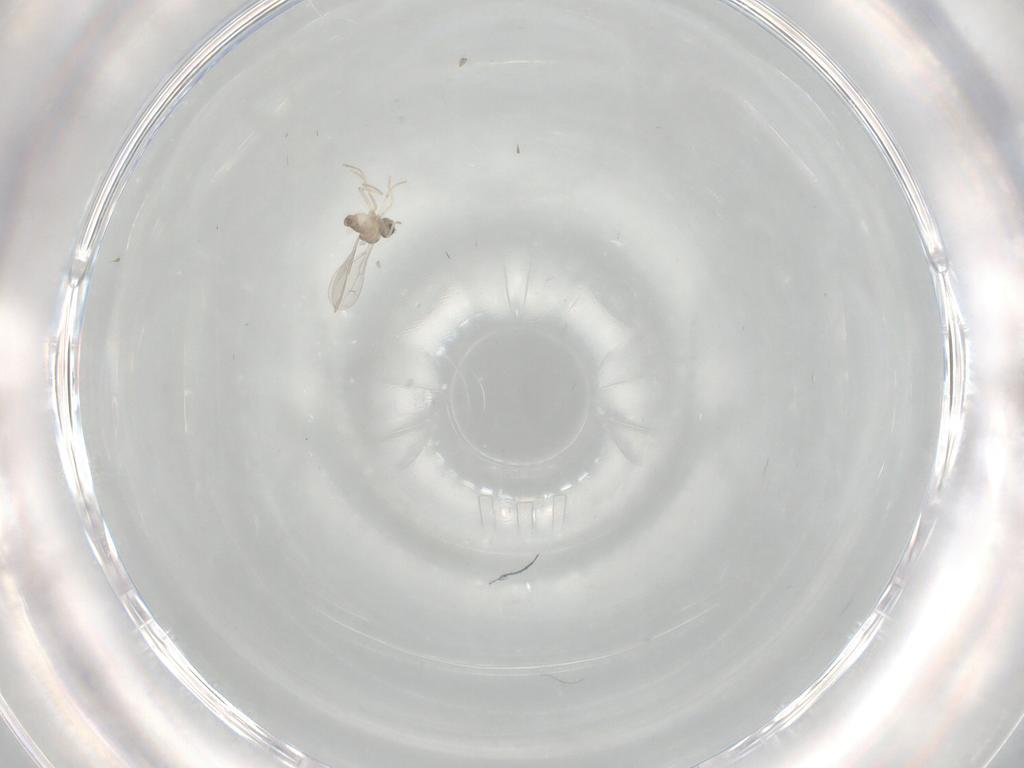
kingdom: Animalia
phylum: Arthropoda
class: Insecta
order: Diptera
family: Cecidomyiidae
